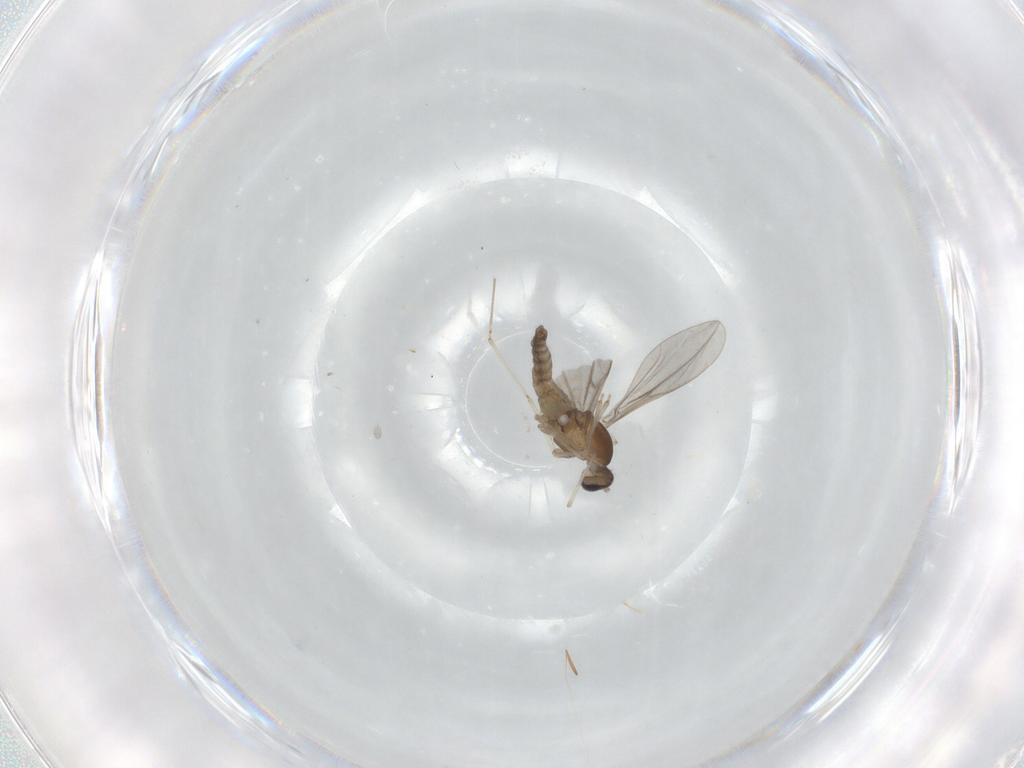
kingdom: Animalia
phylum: Arthropoda
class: Insecta
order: Diptera
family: Cecidomyiidae
